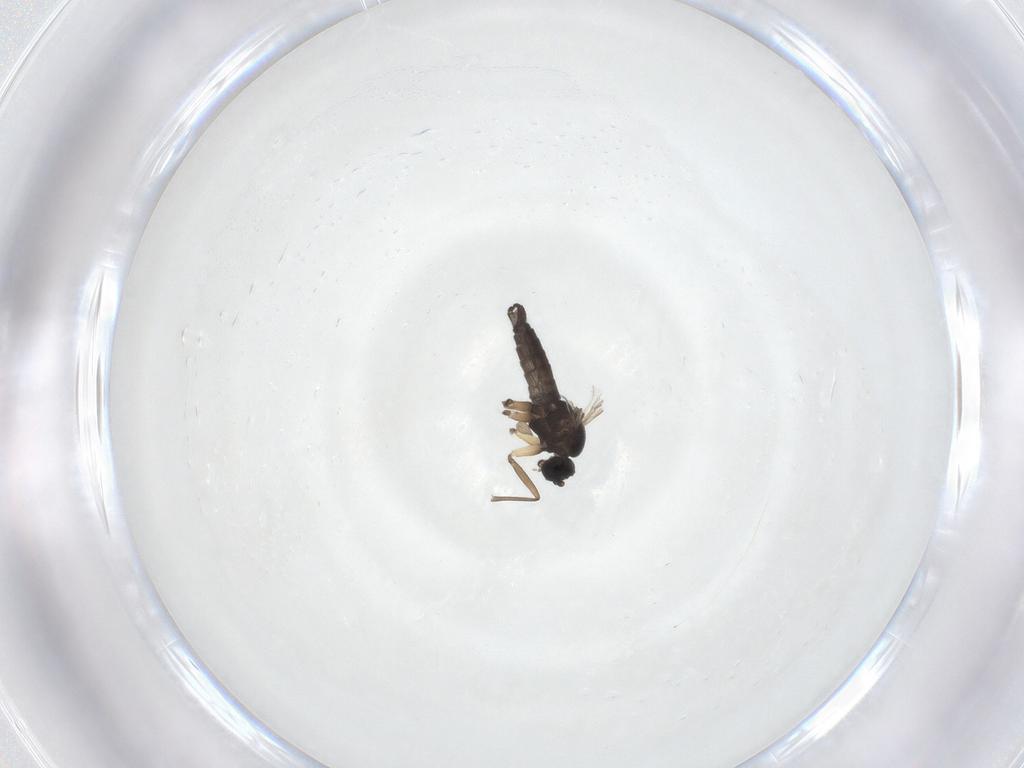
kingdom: Animalia
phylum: Arthropoda
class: Insecta
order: Diptera
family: Sciaridae
